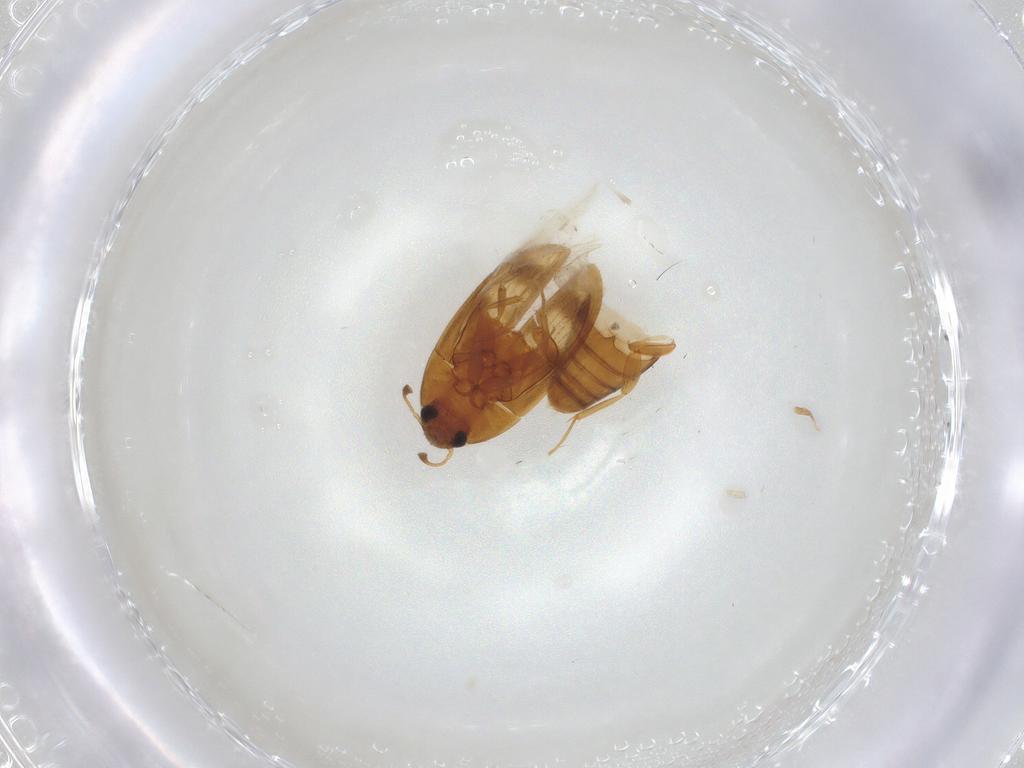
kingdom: Animalia
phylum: Arthropoda
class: Insecta
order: Coleoptera
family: Mycetophagidae
